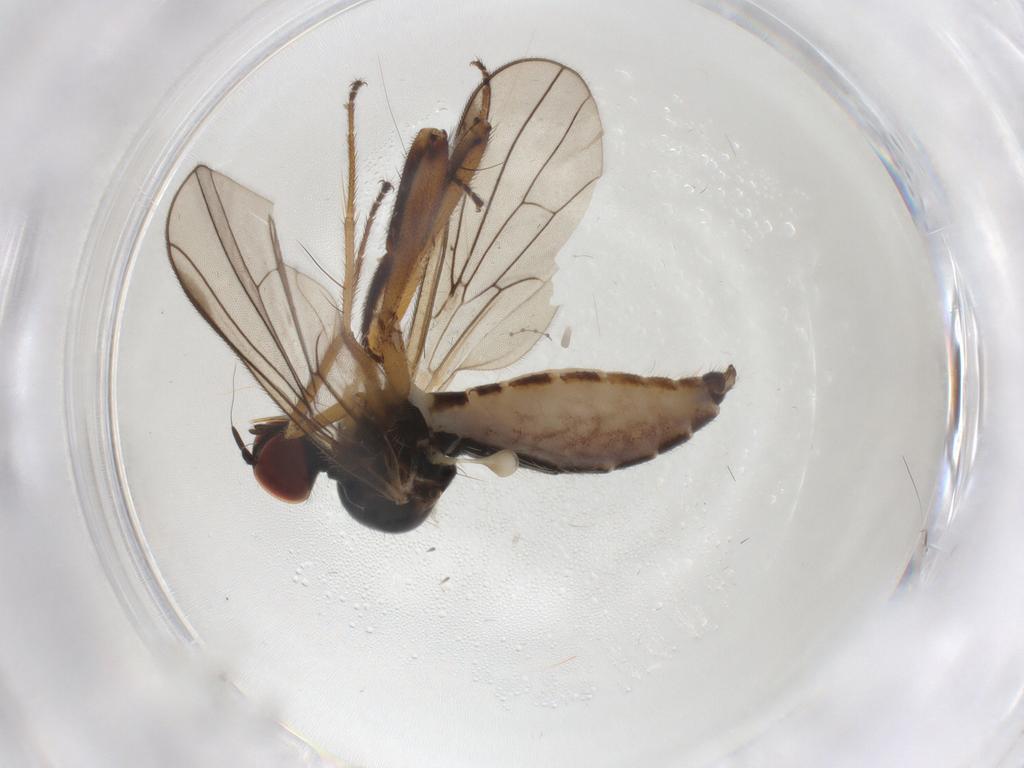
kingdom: Animalia
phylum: Arthropoda
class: Insecta
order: Diptera
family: Hybotidae
